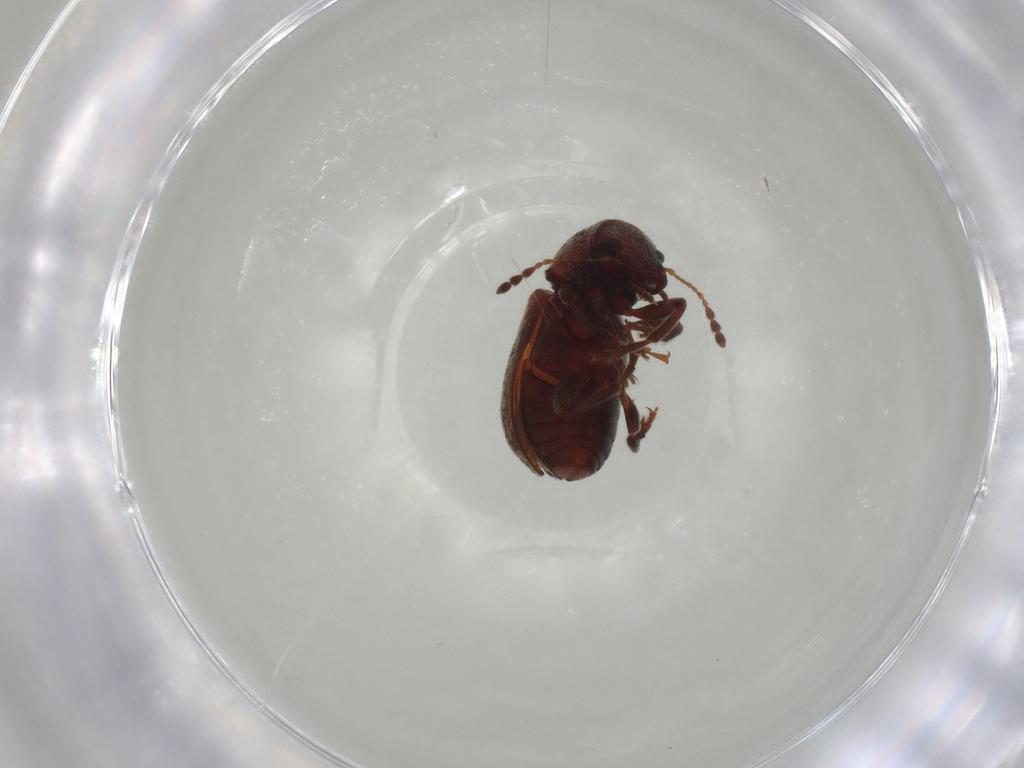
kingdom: Animalia
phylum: Arthropoda
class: Insecta
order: Coleoptera
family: Anthribidae
